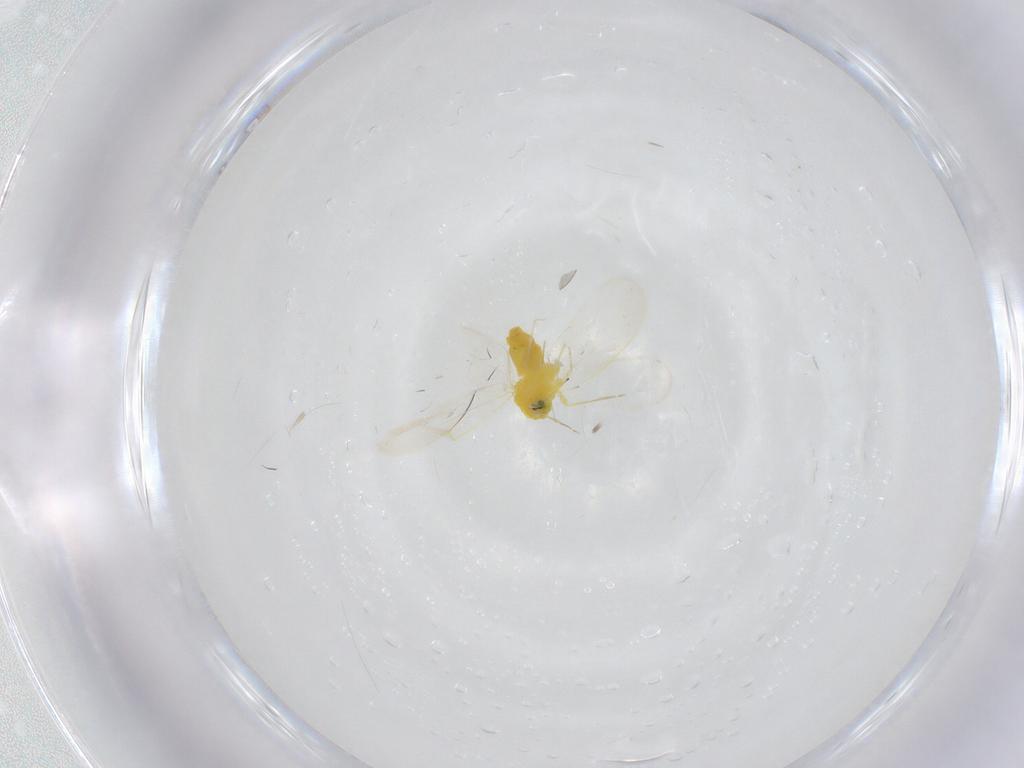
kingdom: Animalia
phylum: Arthropoda
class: Insecta
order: Hemiptera
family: Aleyrodidae
